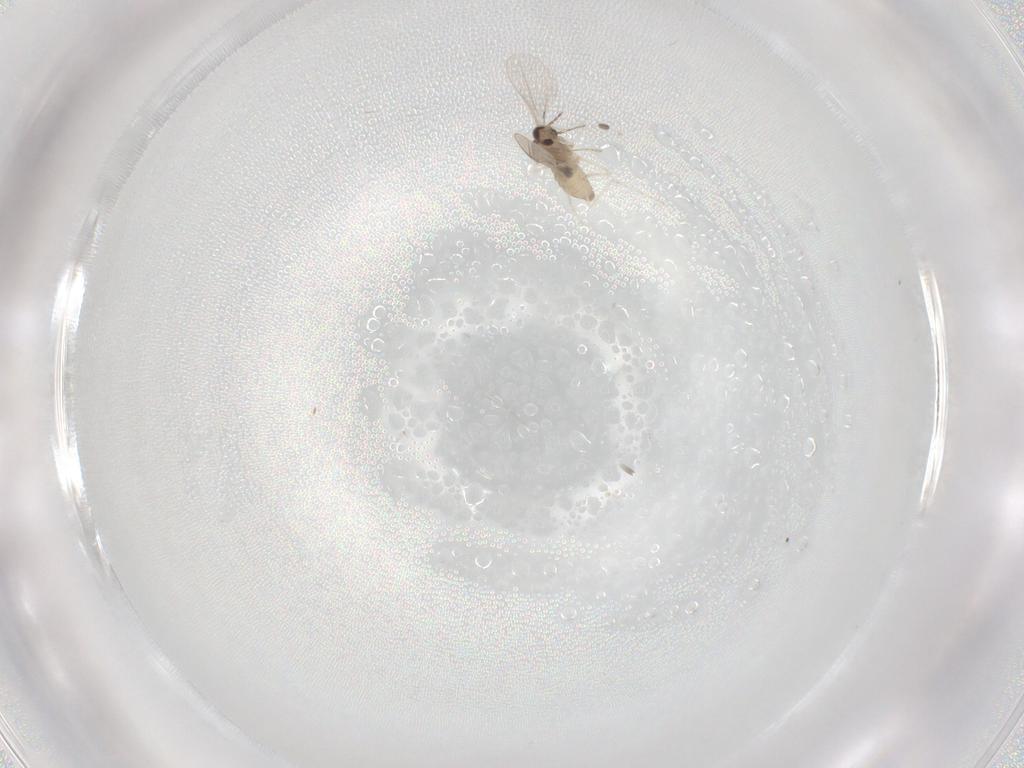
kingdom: Animalia
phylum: Arthropoda
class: Insecta
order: Diptera
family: Cecidomyiidae
